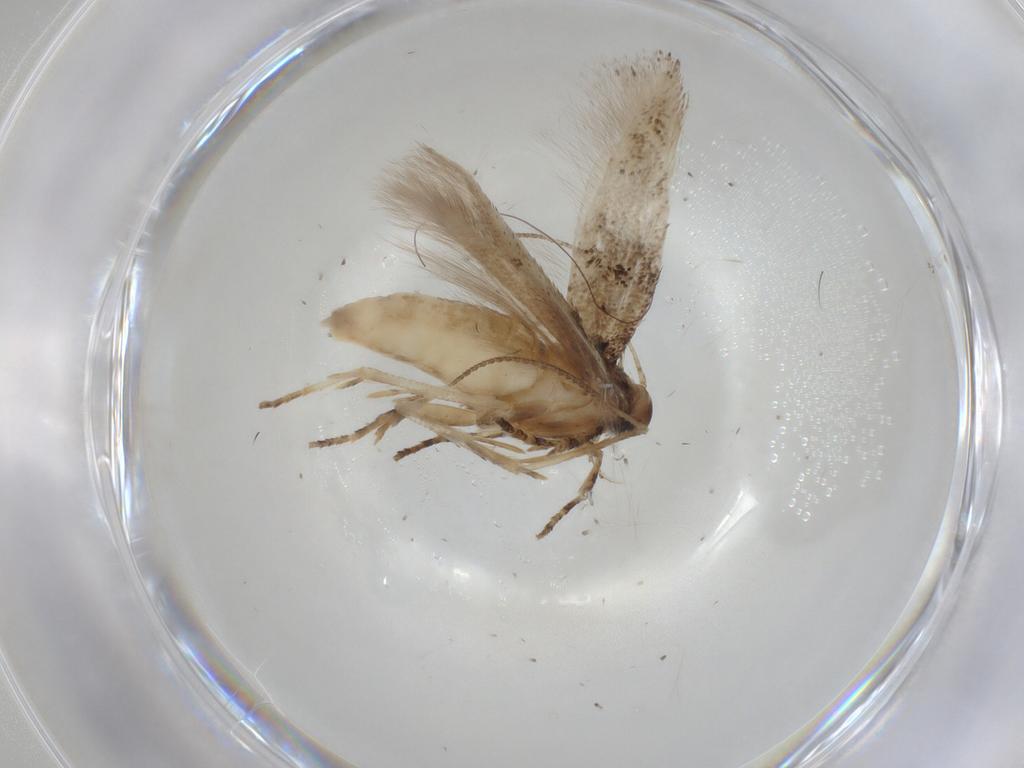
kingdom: Animalia
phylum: Arthropoda
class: Insecta
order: Lepidoptera
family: Gelechiidae
